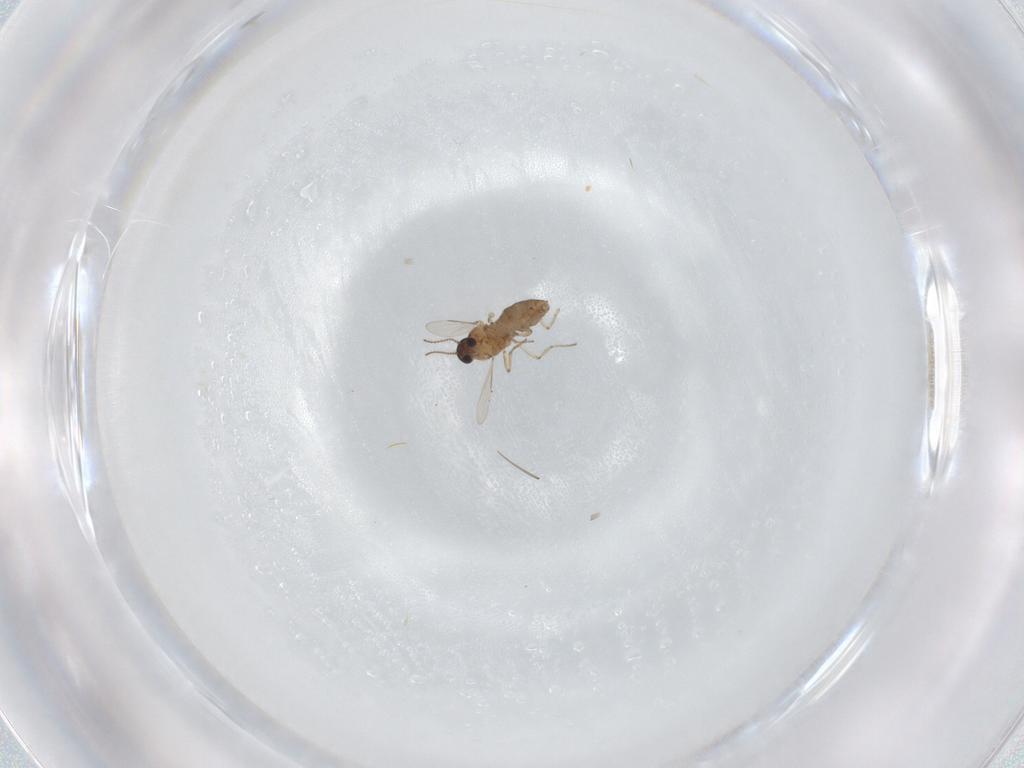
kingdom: Animalia
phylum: Arthropoda
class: Insecta
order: Diptera
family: Ceratopogonidae
